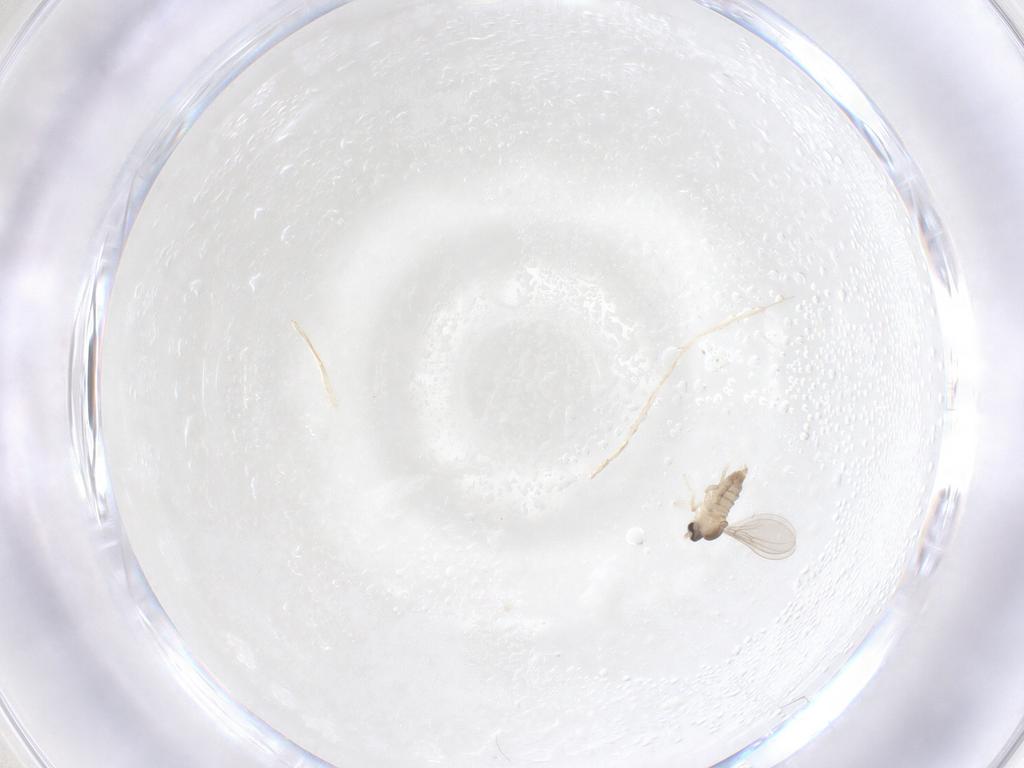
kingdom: Animalia
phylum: Arthropoda
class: Insecta
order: Diptera
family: Cecidomyiidae
